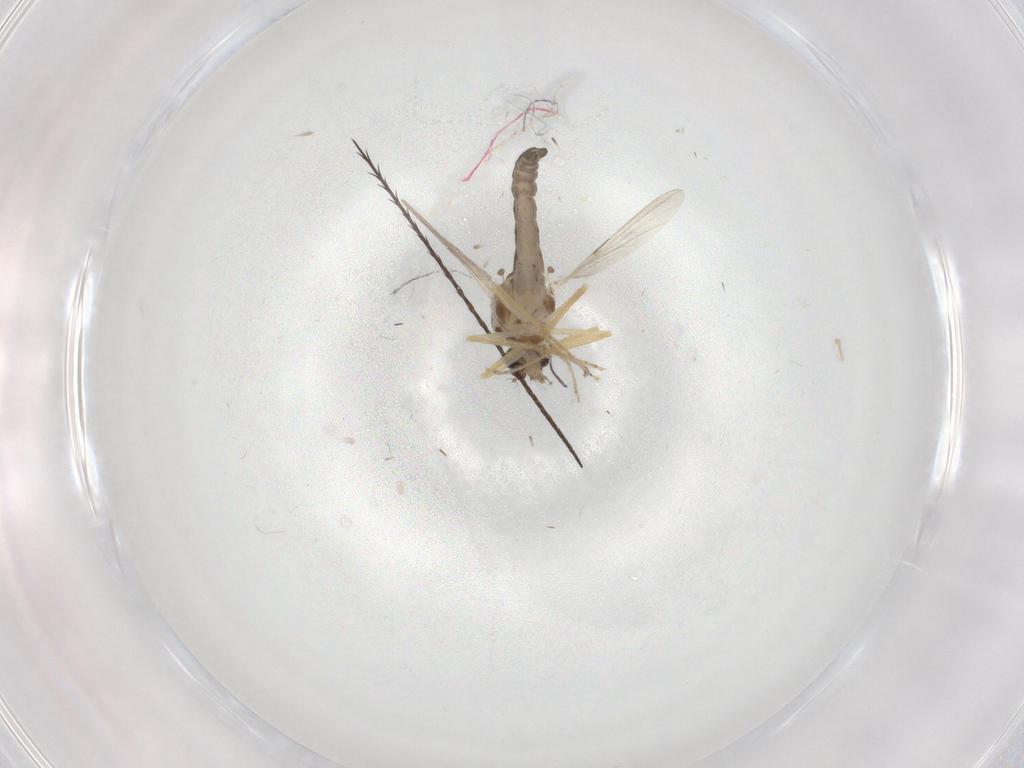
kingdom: Animalia
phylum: Arthropoda
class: Insecta
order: Diptera
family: Ceratopogonidae
